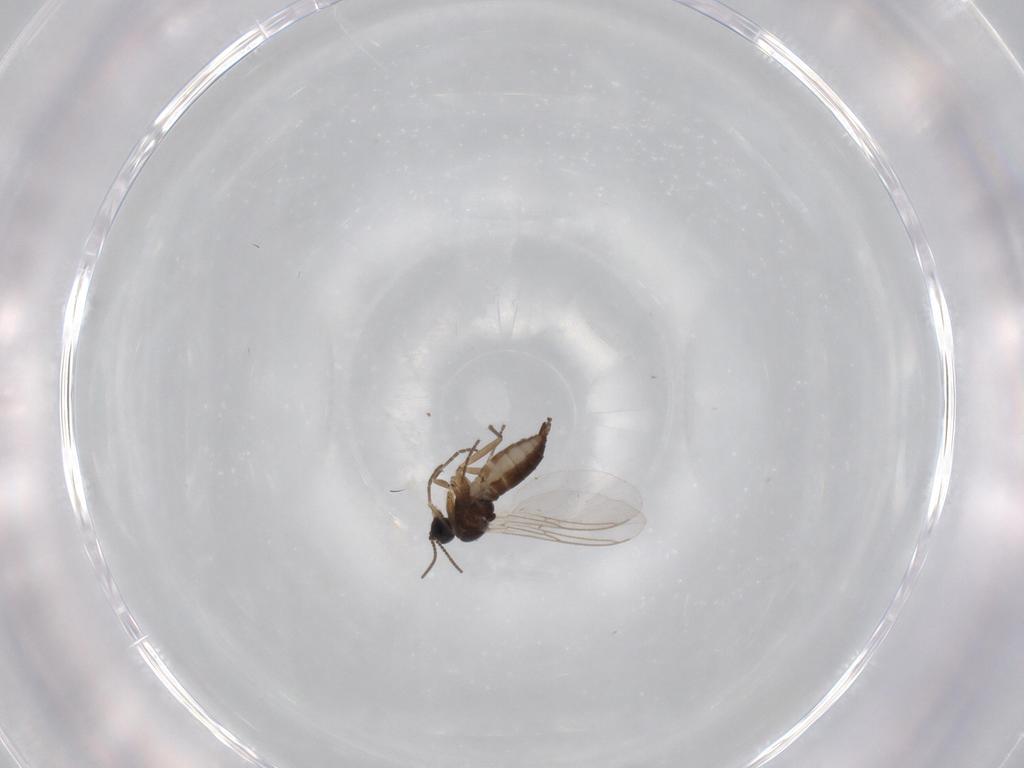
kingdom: Animalia
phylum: Arthropoda
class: Insecta
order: Diptera
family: Sciaridae
